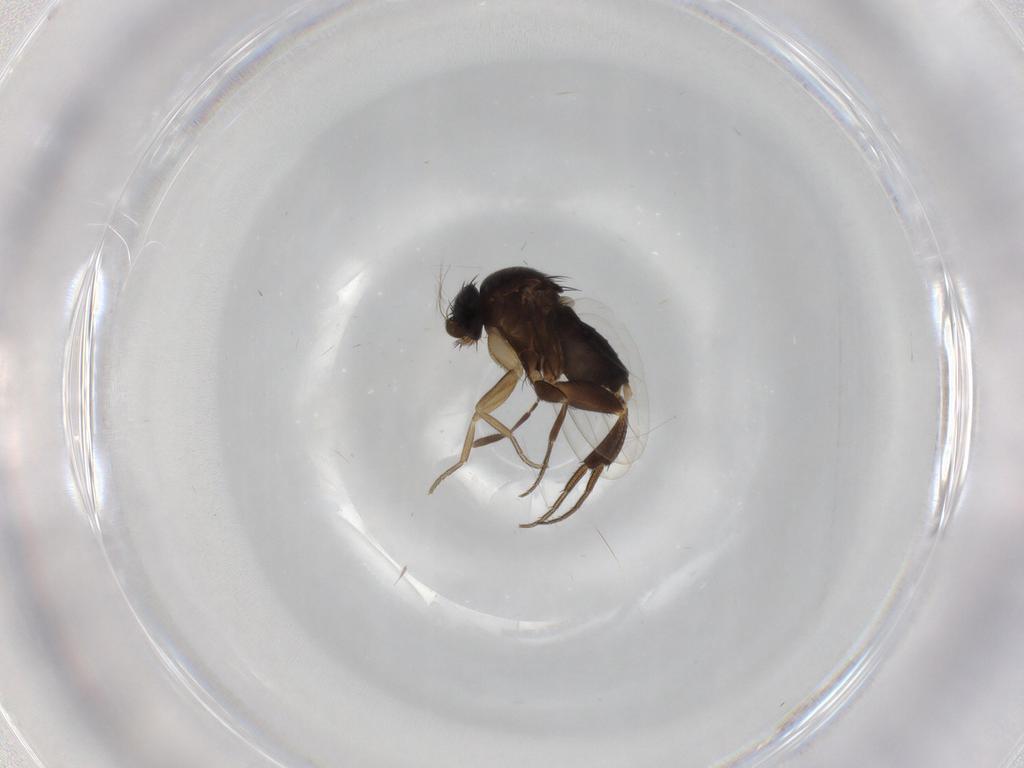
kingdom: Animalia
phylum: Arthropoda
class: Insecta
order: Diptera
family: Phoridae
